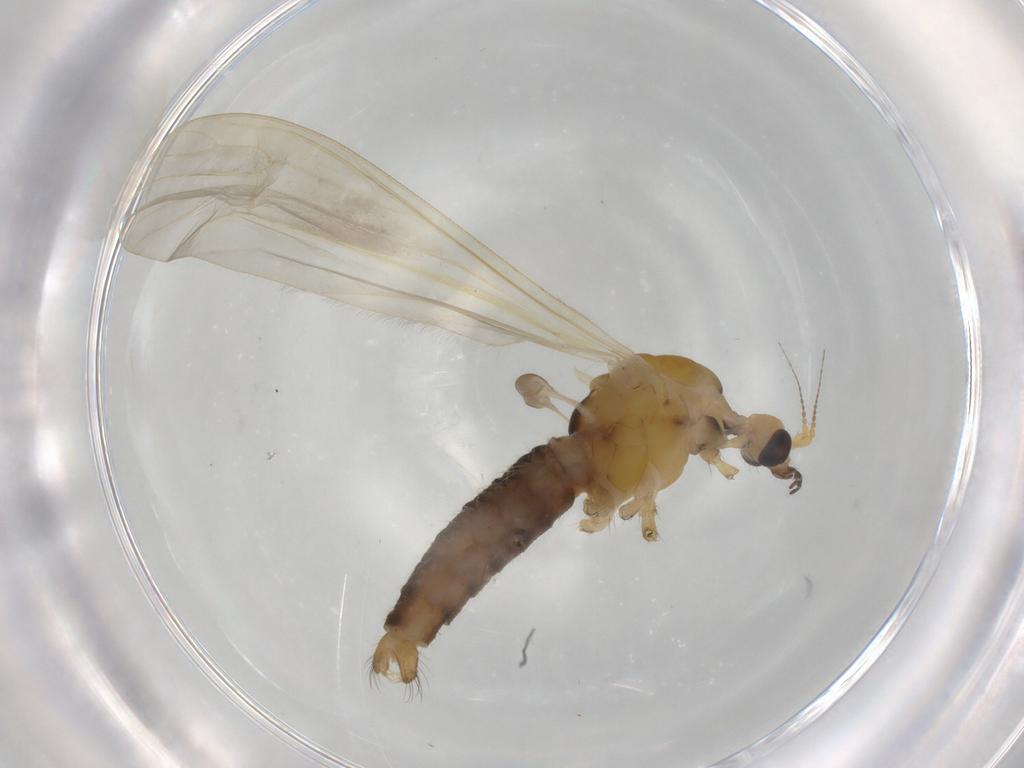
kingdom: Animalia
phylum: Arthropoda
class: Insecta
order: Diptera
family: Limoniidae
